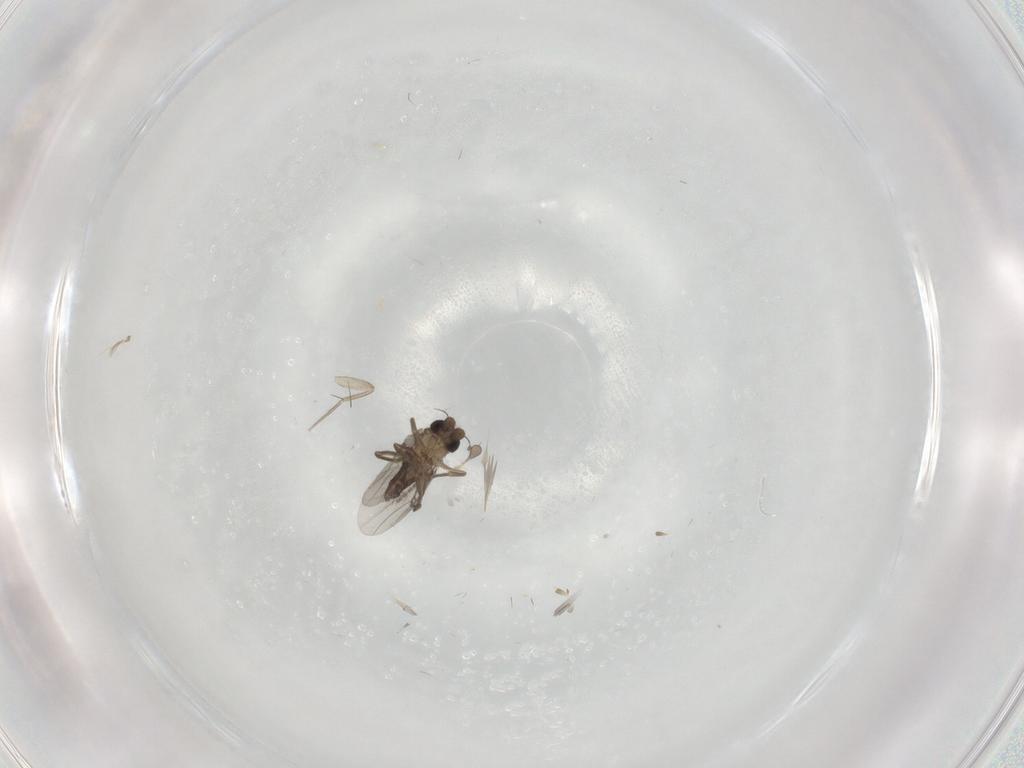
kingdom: Animalia
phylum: Arthropoda
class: Insecta
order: Diptera
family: Phoridae
